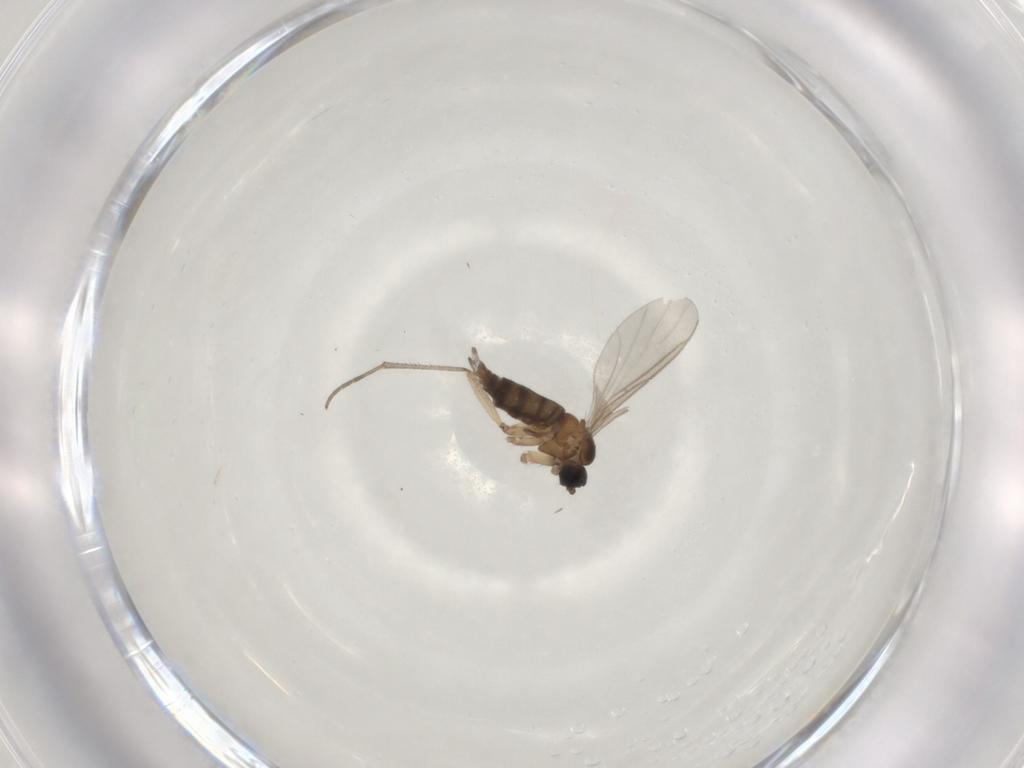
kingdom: Animalia
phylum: Arthropoda
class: Insecta
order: Diptera
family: Sciaridae
